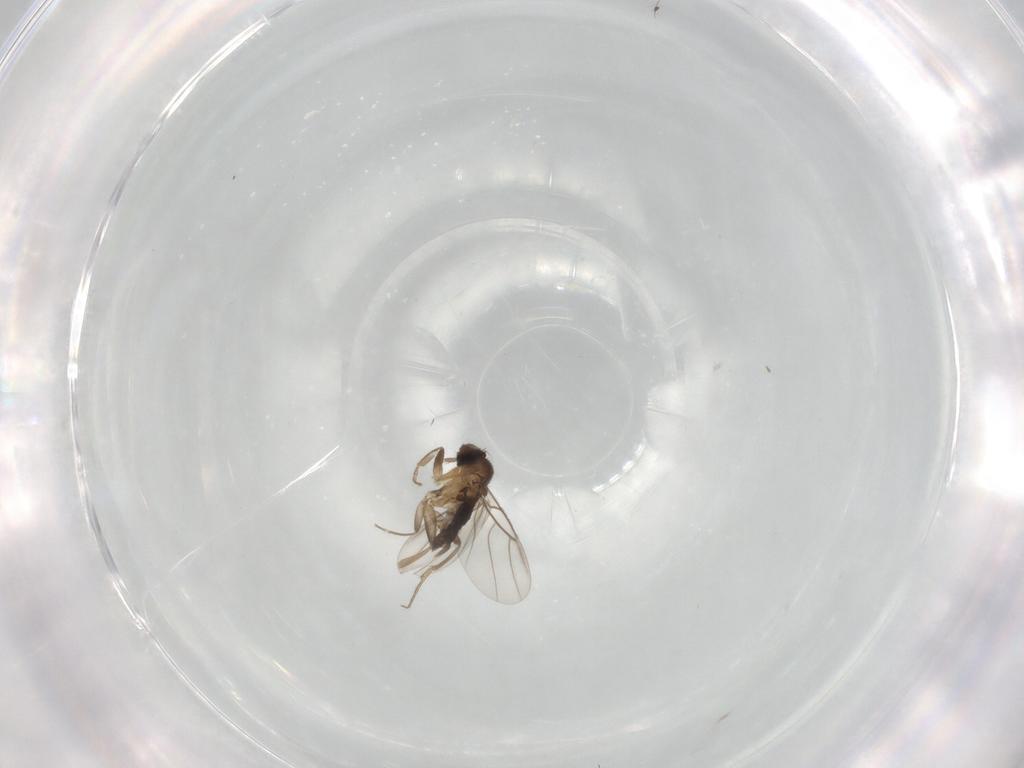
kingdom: Animalia
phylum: Arthropoda
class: Insecta
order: Diptera
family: Phoridae
